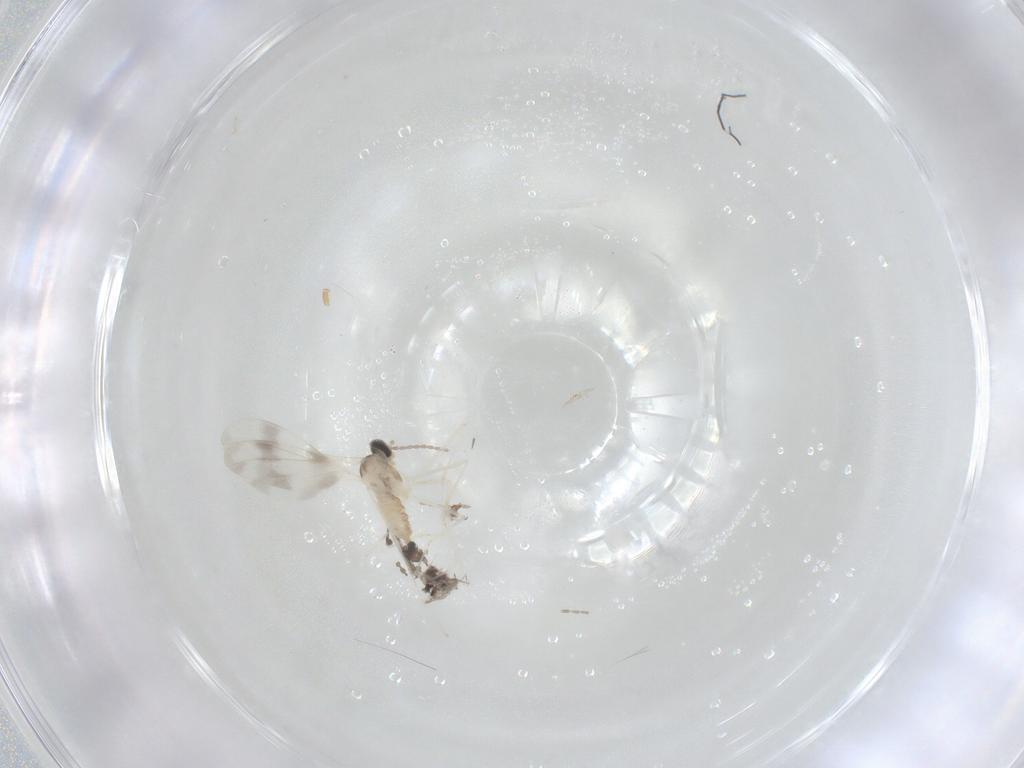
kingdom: Animalia
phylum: Arthropoda
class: Insecta
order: Diptera
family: Cecidomyiidae
